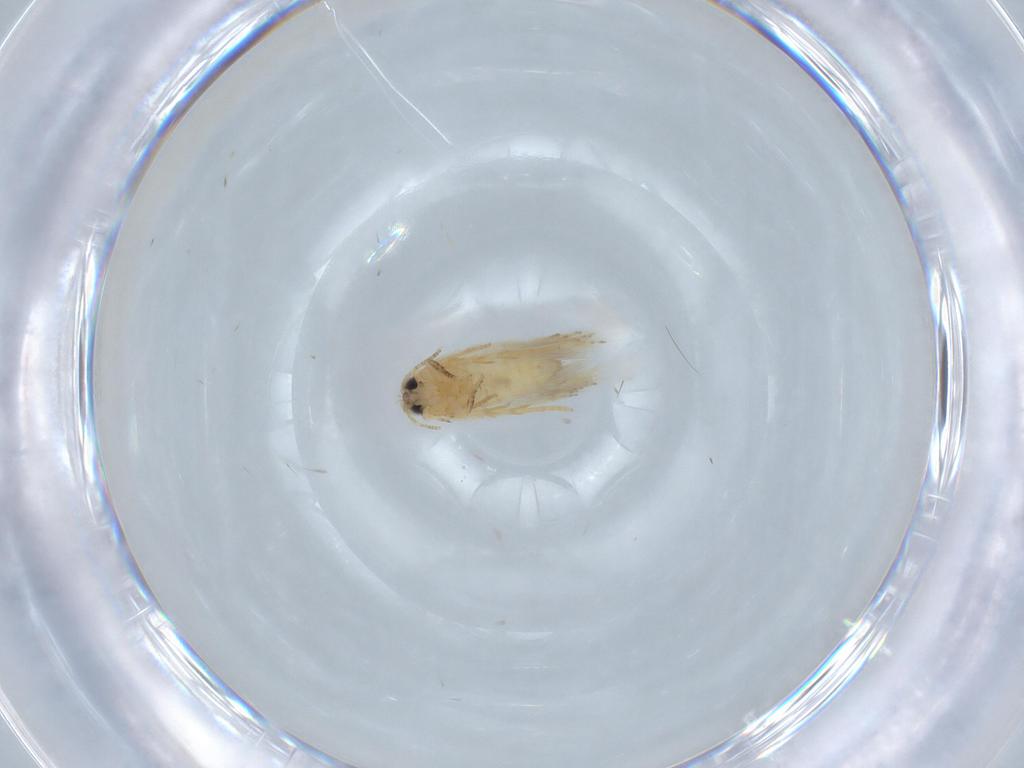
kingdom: Animalia
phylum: Arthropoda
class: Insecta
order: Lepidoptera
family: Nepticulidae
